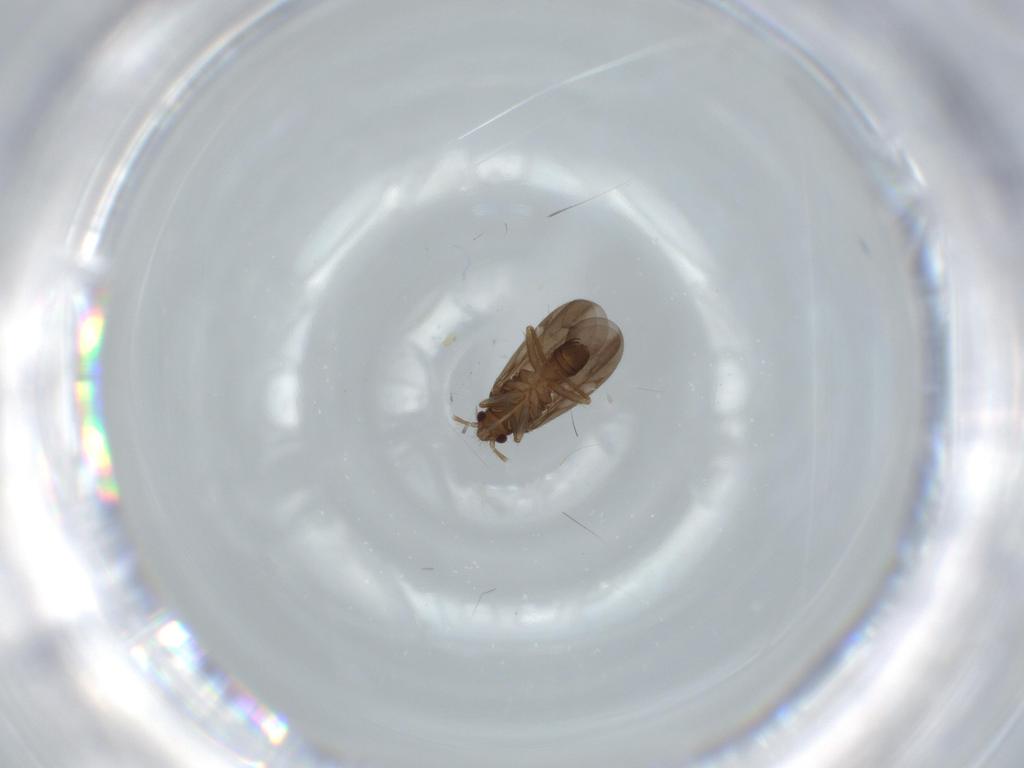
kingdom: Animalia
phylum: Arthropoda
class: Insecta
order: Hemiptera
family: Ceratocombidae
